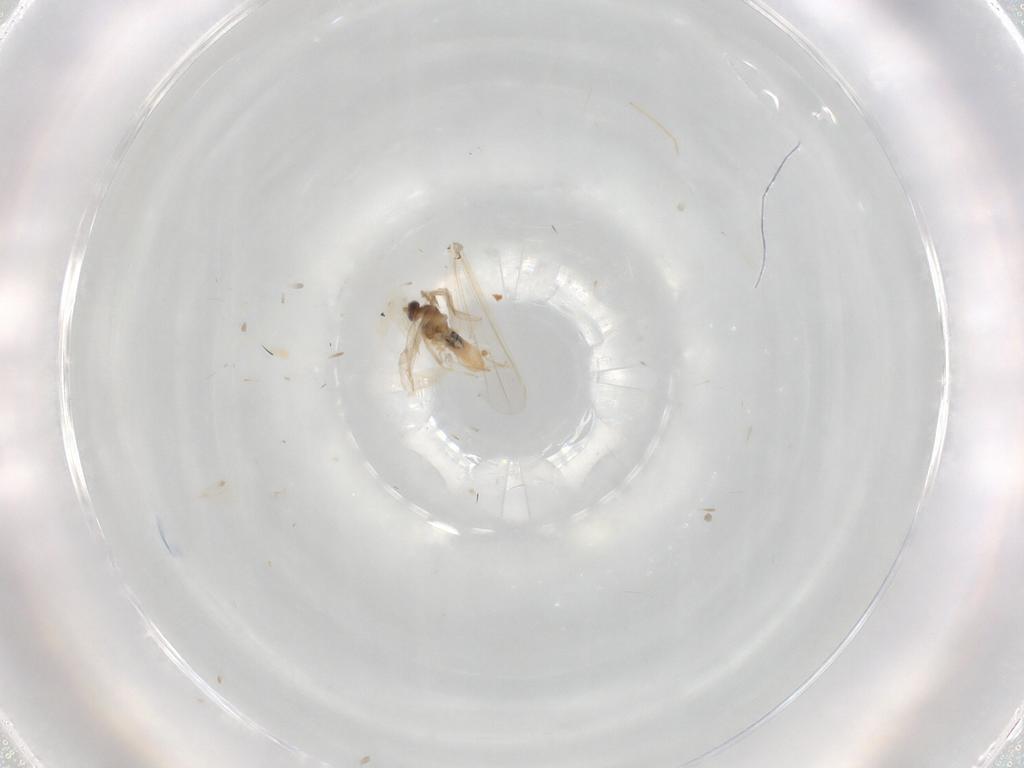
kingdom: Animalia
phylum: Arthropoda
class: Insecta
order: Diptera
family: Cecidomyiidae
